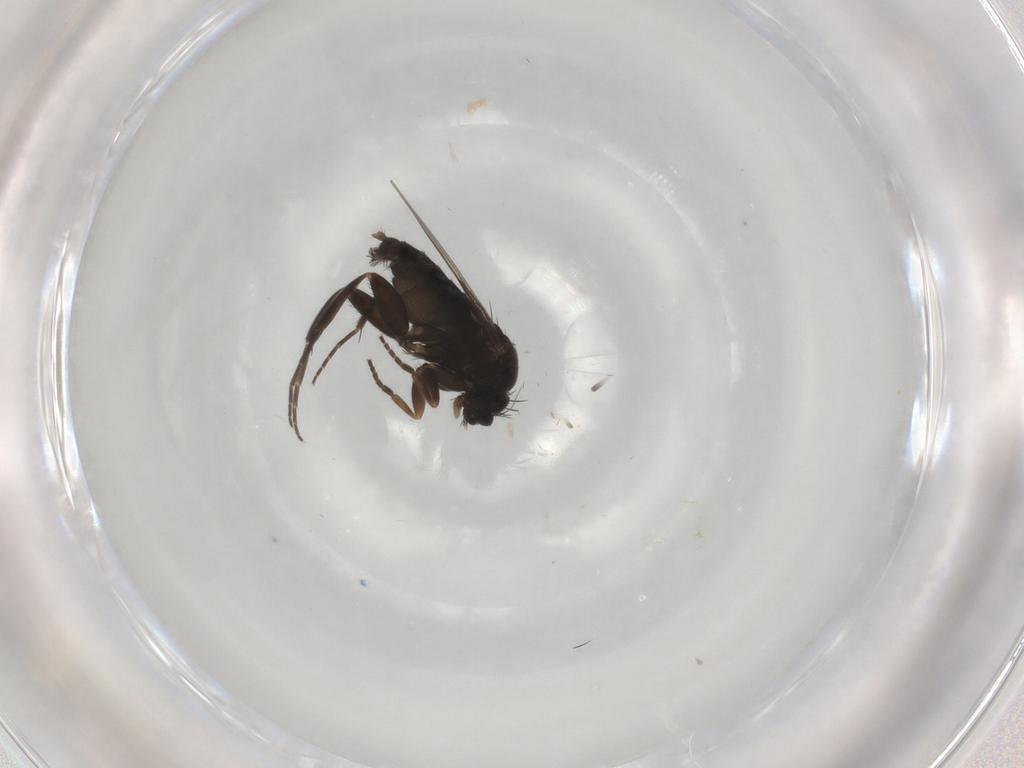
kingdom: Animalia
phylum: Arthropoda
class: Insecta
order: Diptera
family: Phoridae
